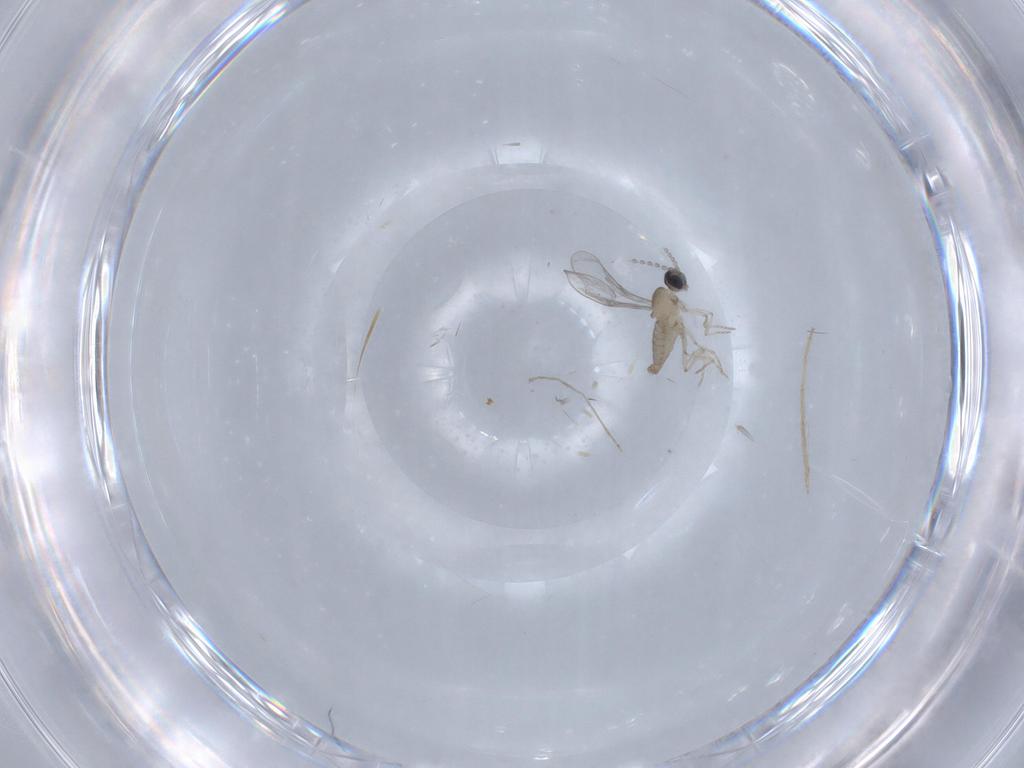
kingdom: Animalia
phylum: Arthropoda
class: Insecta
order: Diptera
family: Cecidomyiidae
